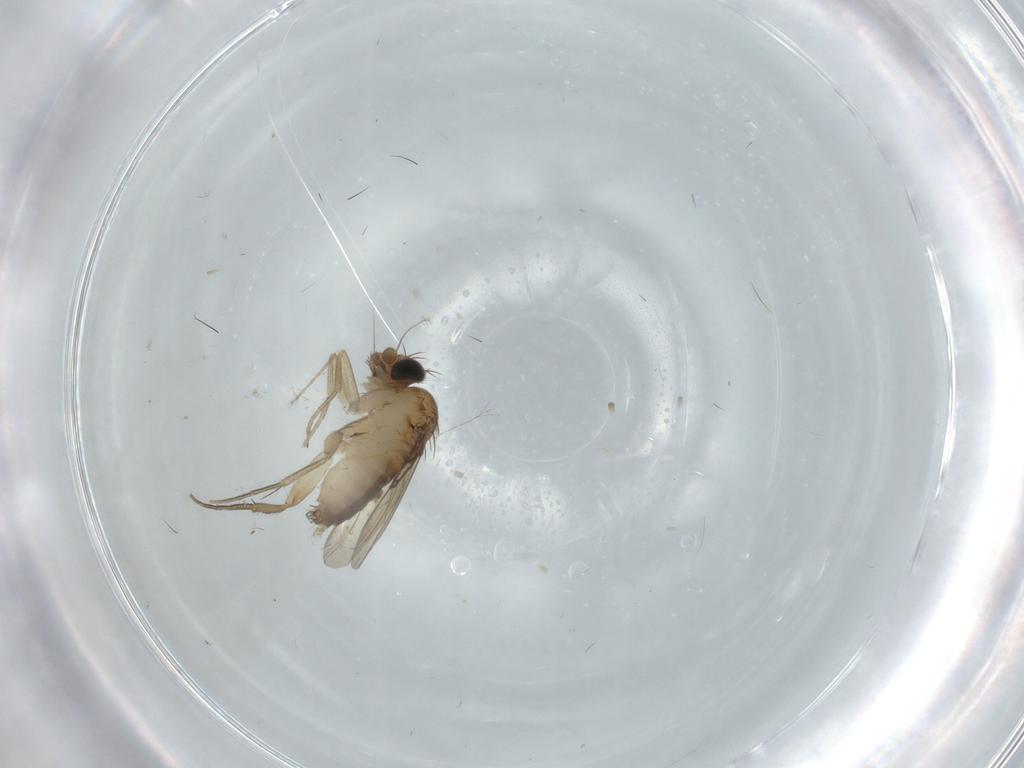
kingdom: Animalia
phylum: Arthropoda
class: Insecta
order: Diptera
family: Phoridae
